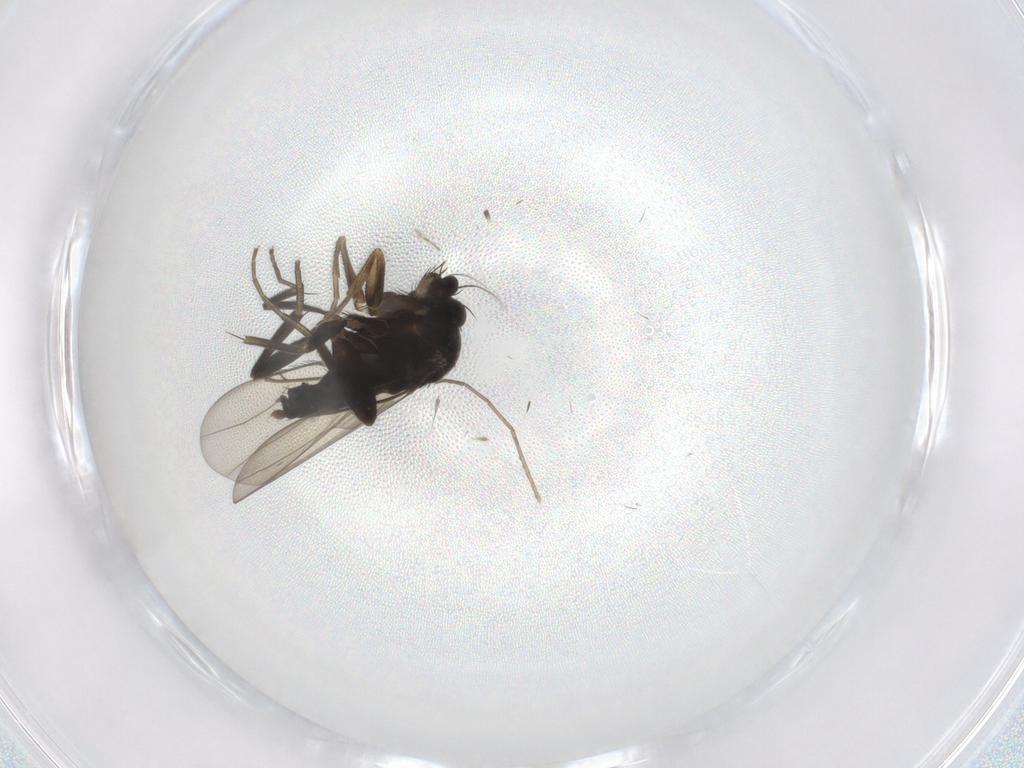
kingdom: Animalia
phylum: Arthropoda
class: Insecta
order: Diptera
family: Phoridae
